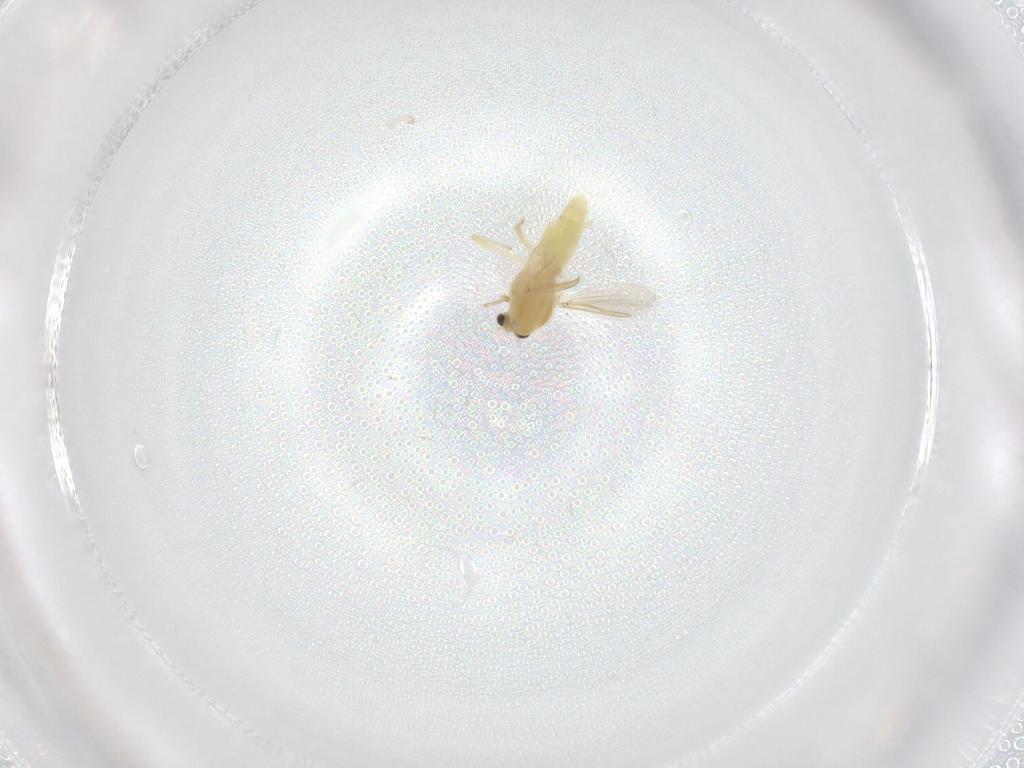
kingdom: Animalia
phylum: Arthropoda
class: Insecta
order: Diptera
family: Chironomidae
